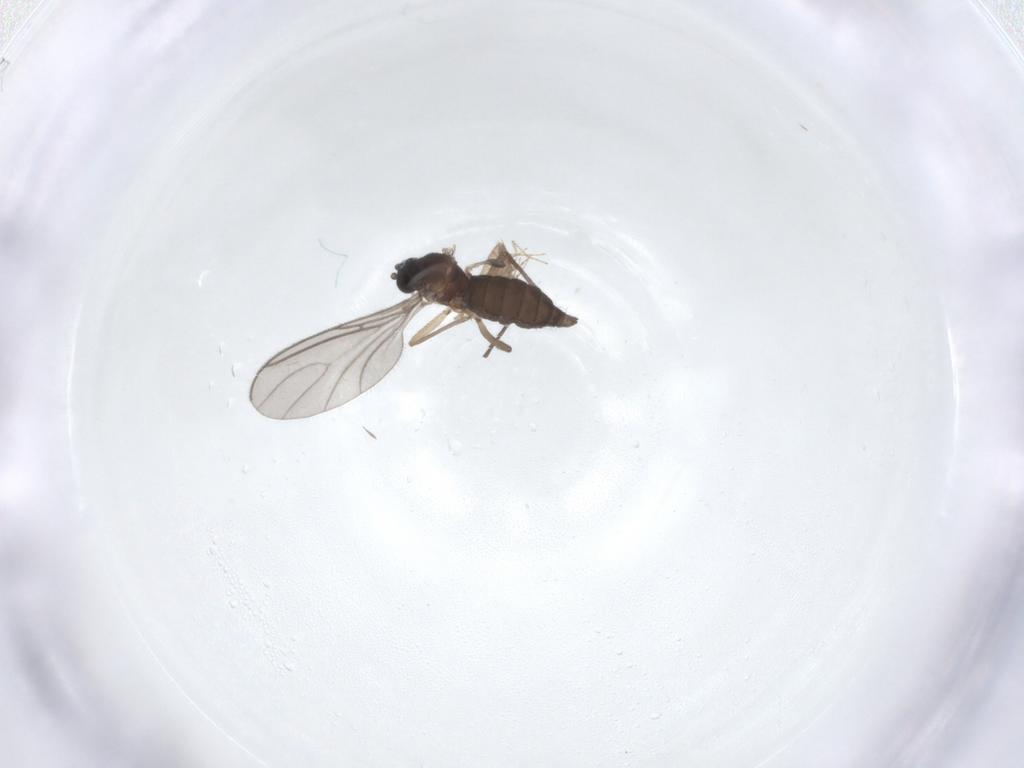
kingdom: Animalia
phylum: Arthropoda
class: Insecta
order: Diptera
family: Sciaridae
